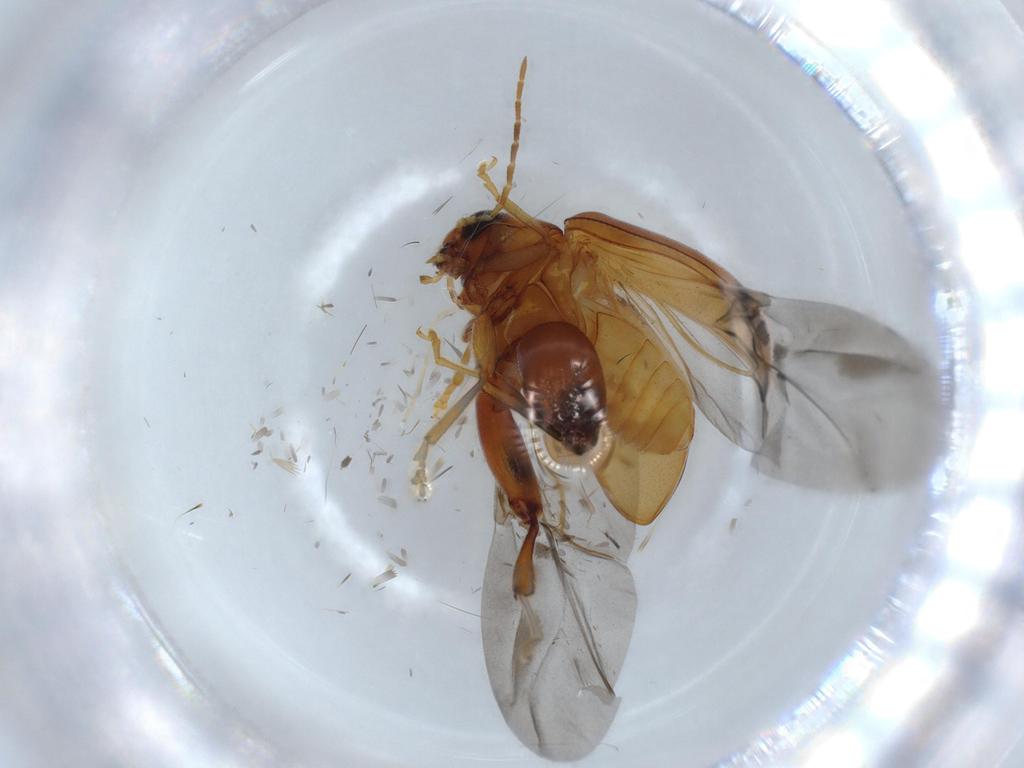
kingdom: Animalia
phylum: Arthropoda
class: Insecta
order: Coleoptera
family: Chrysomelidae
